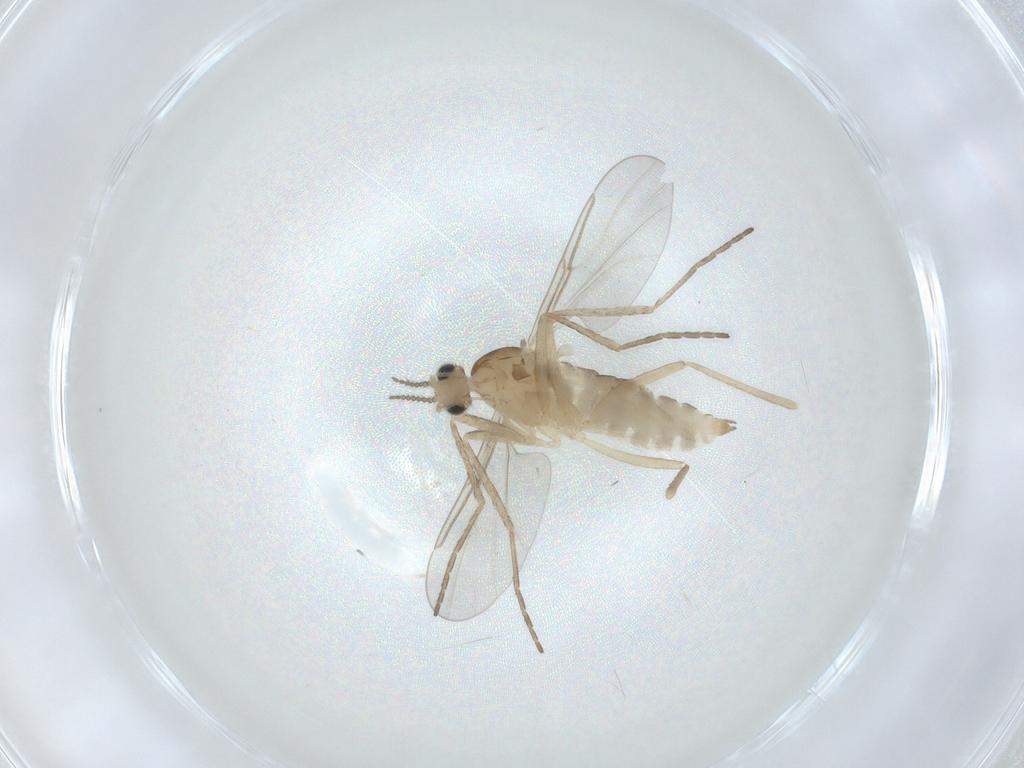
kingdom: Animalia
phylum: Arthropoda
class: Insecta
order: Diptera
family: Cecidomyiidae
